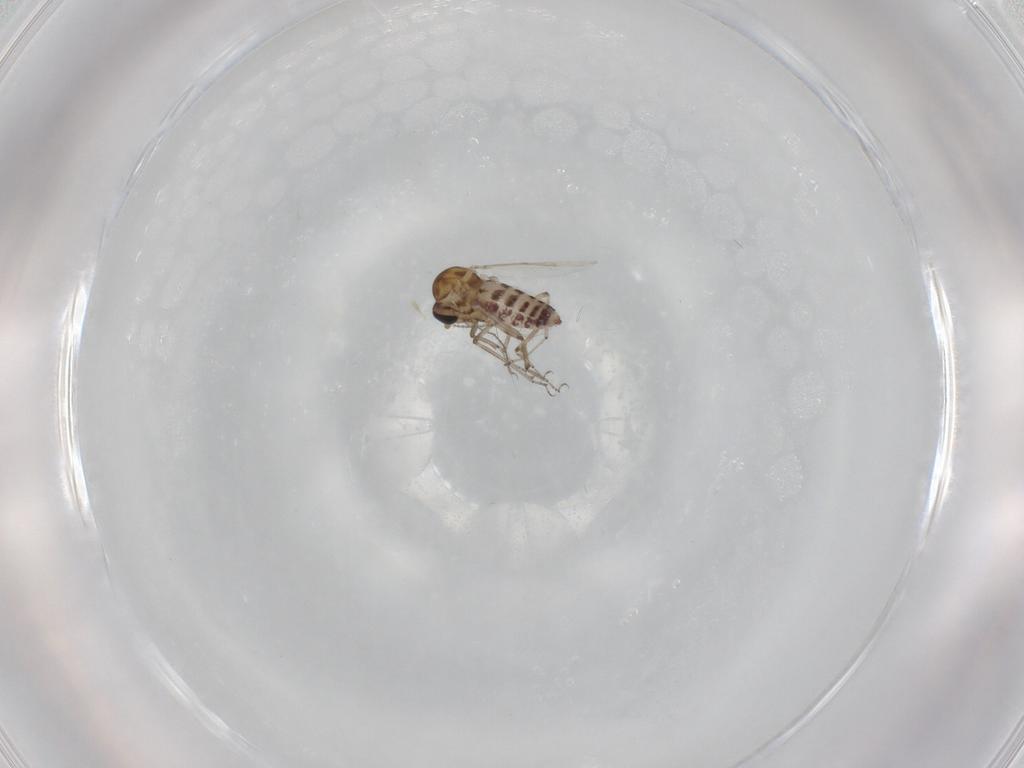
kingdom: Animalia
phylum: Arthropoda
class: Insecta
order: Diptera
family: Ceratopogonidae
